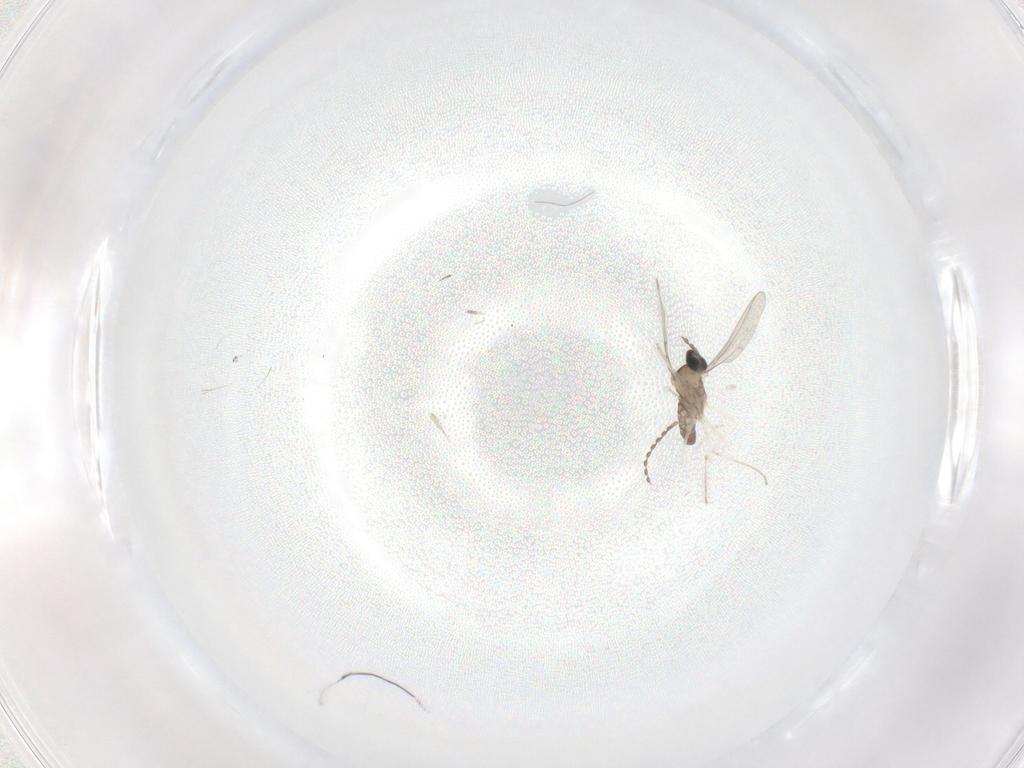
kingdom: Animalia
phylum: Arthropoda
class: Insecta
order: Diptera
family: Cecidomyiidae
